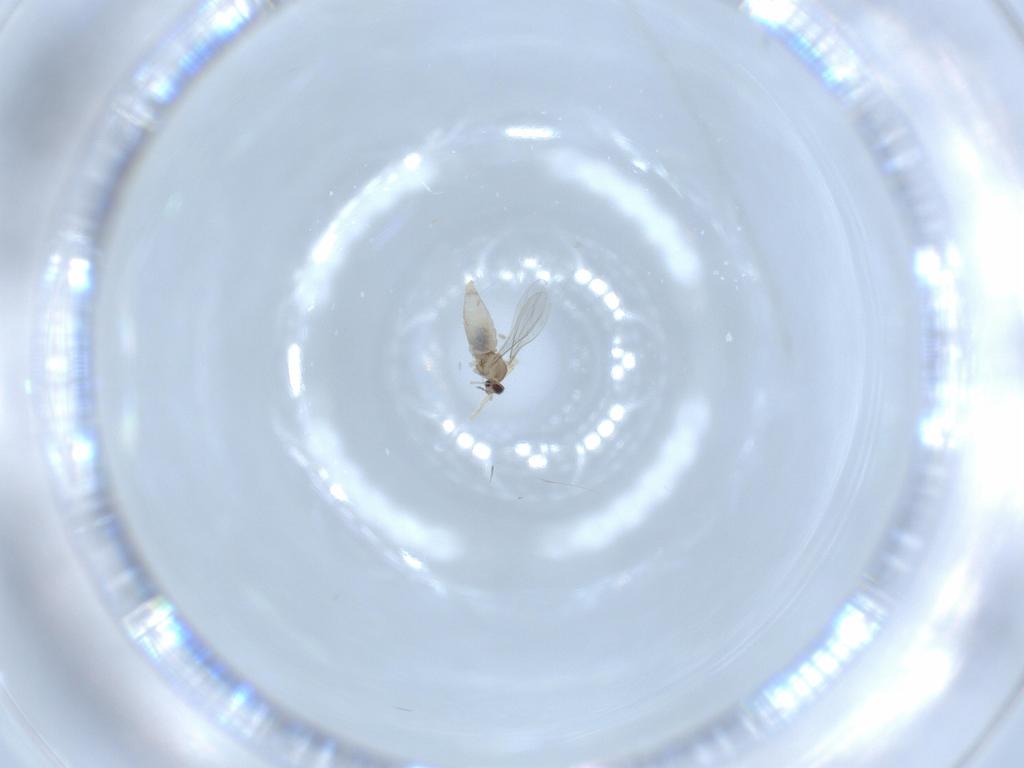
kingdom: Animalia
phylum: Arthropoda
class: Insecta
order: Diptera
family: Cecidomyiidae
